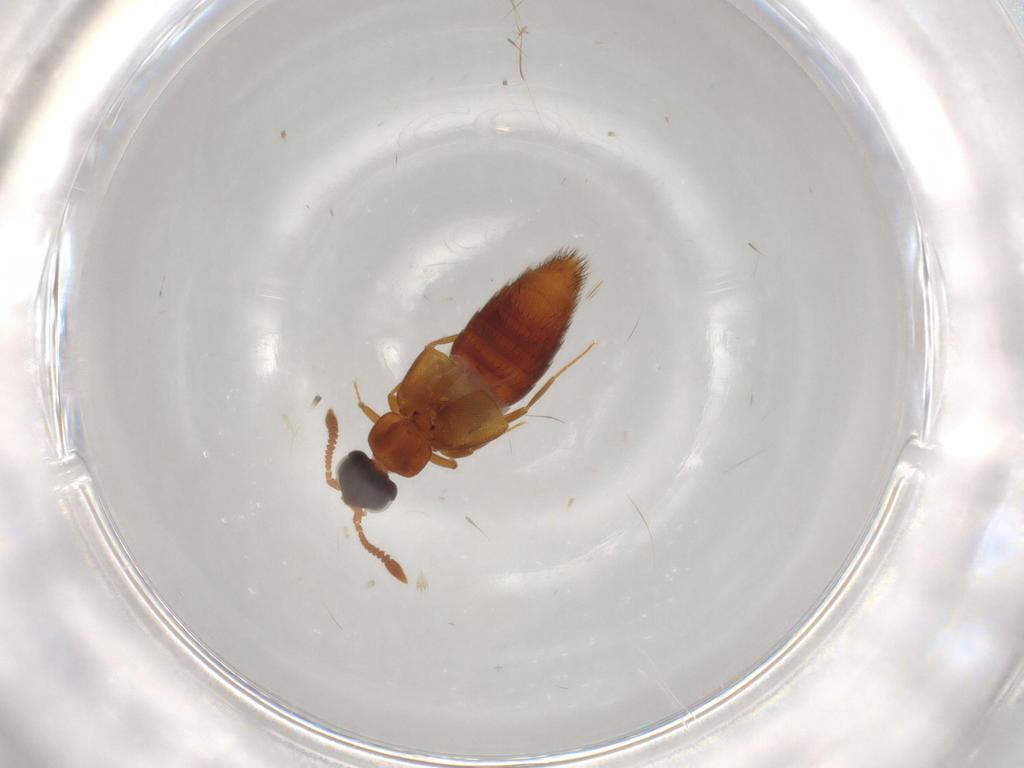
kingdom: Animalia
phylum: Arthropoda
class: Insecta
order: Coleoptera
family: Staphylinidae
